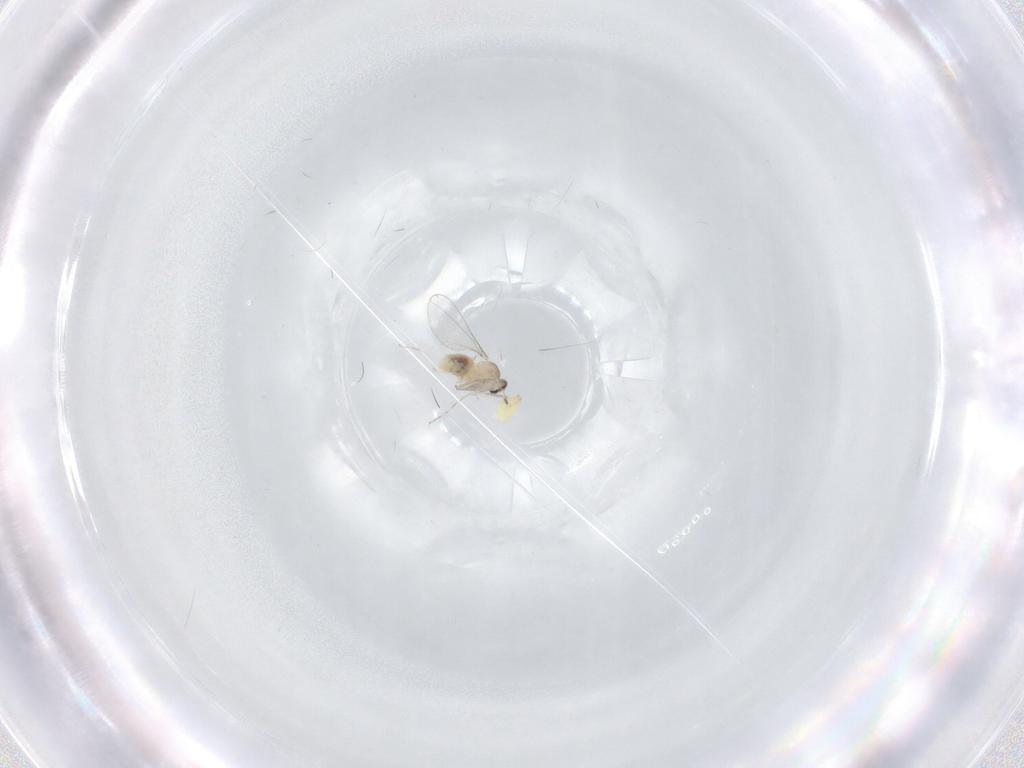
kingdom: Animalia
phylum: Arthropoda
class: Insecta
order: Diptera
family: Cecidomyiidae
